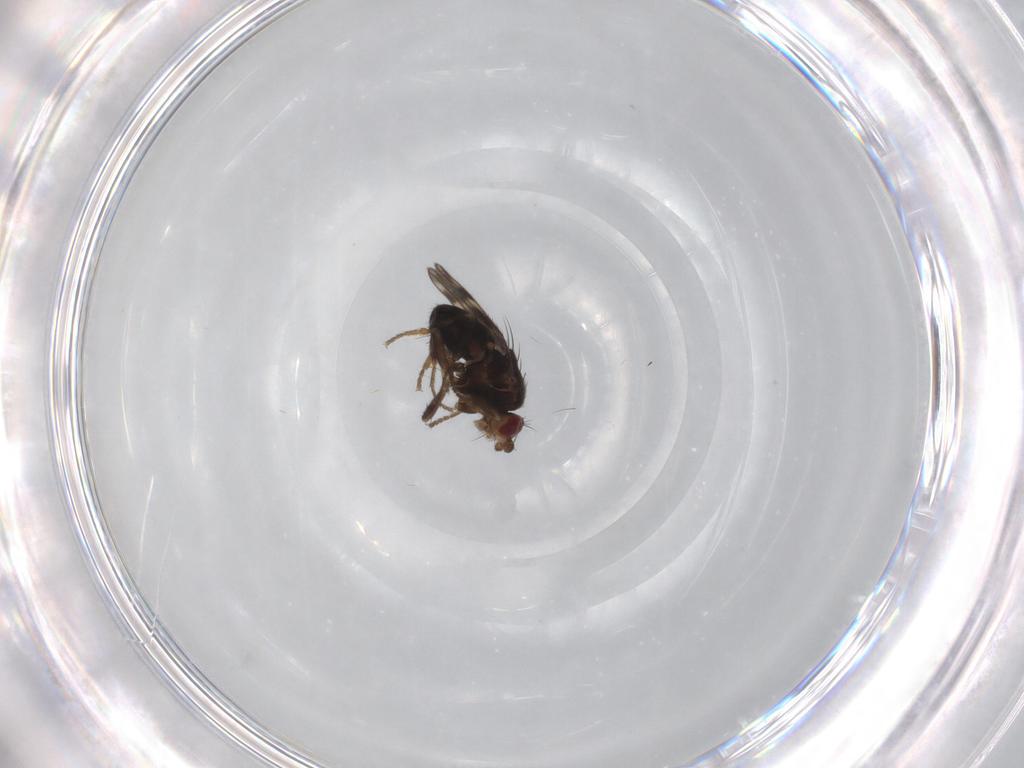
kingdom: Animalia
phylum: Arthropoda
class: Insecta
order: Diptera
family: Sphaeroceridae
